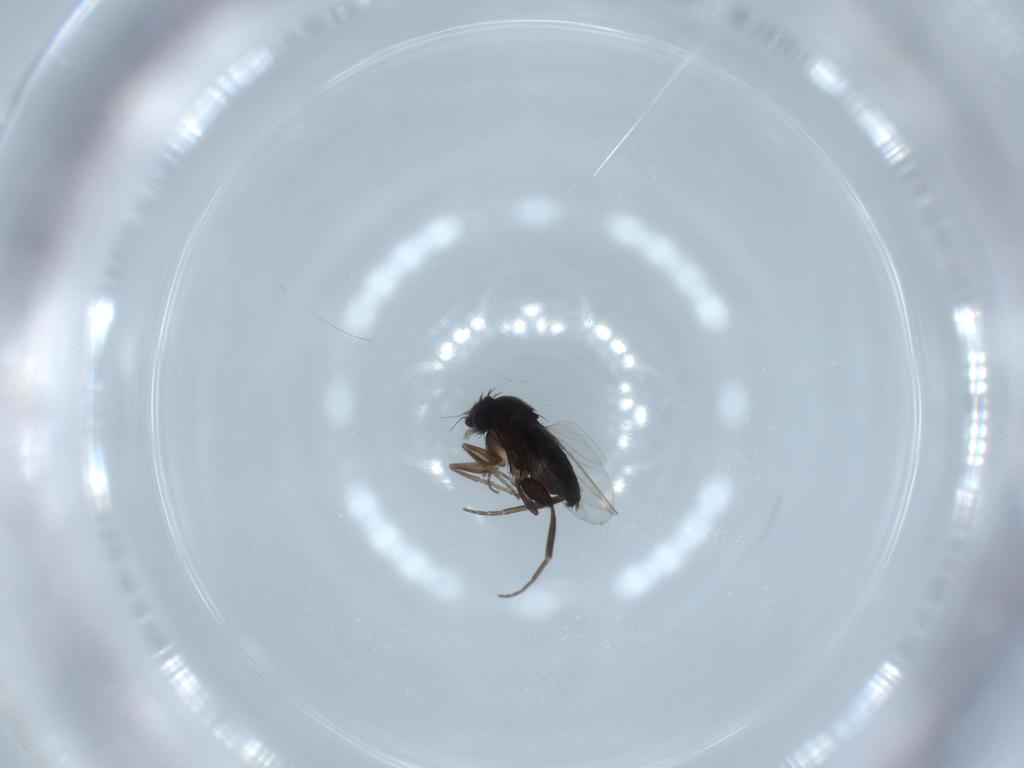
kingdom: Animalia
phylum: Arthropoda
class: Insecta
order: Diptera
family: Phoridae
